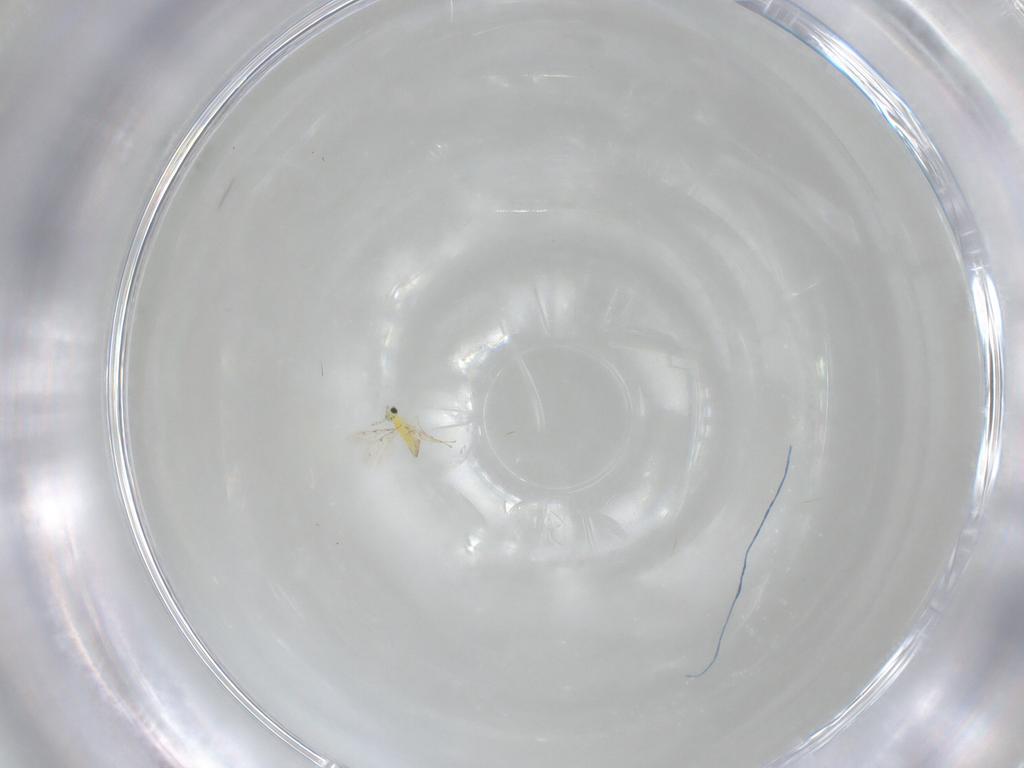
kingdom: Animalia
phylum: Arthropoda
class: Insecta
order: Hymenoptera
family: Trichogrammatidae
